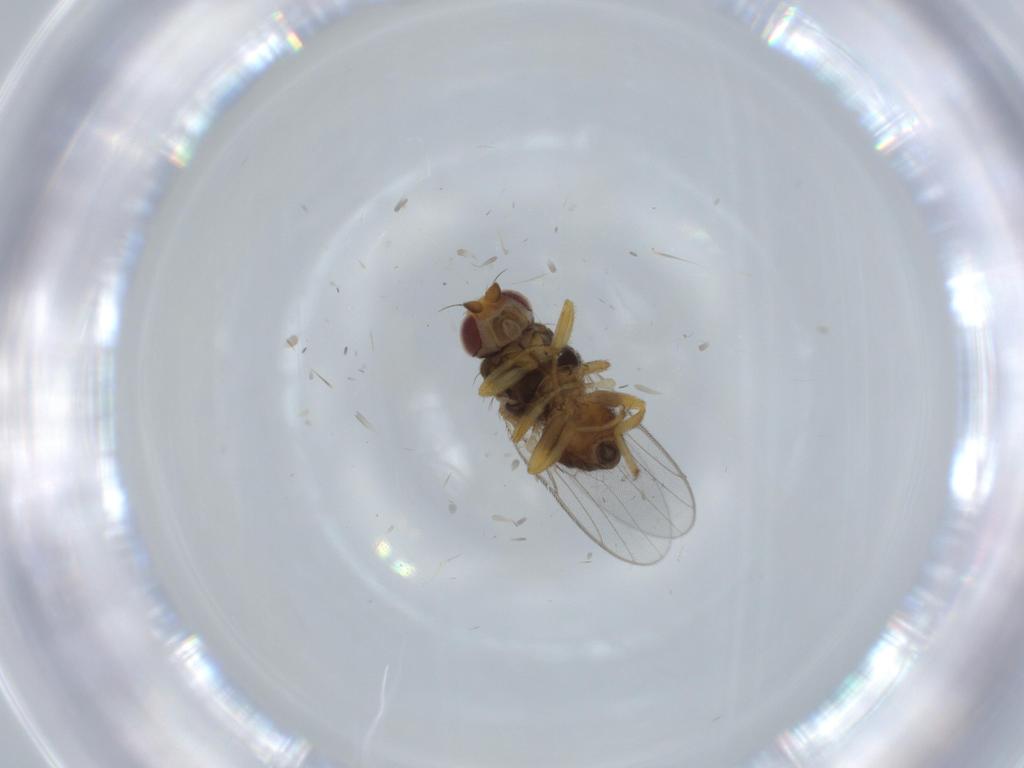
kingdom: Animalia
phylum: Arthropoda
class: Insecta
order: Diptera
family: Chloropidae
